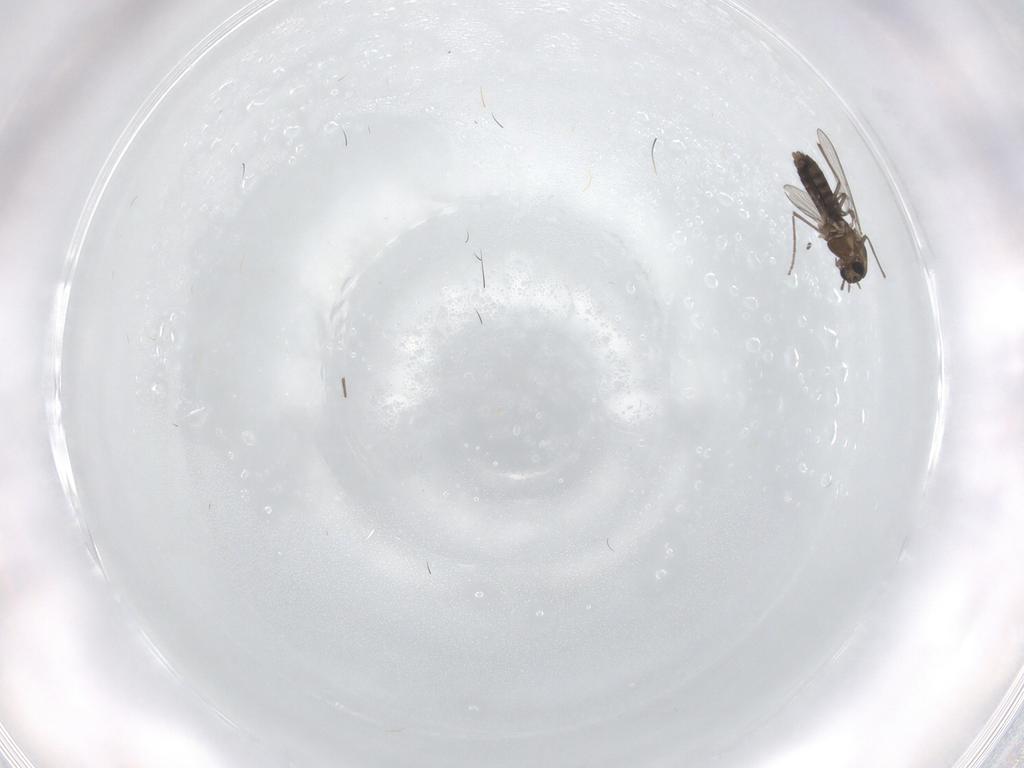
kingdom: Animalia
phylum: Arthropoda
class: Insecta
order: Diptera
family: Chironomidae
